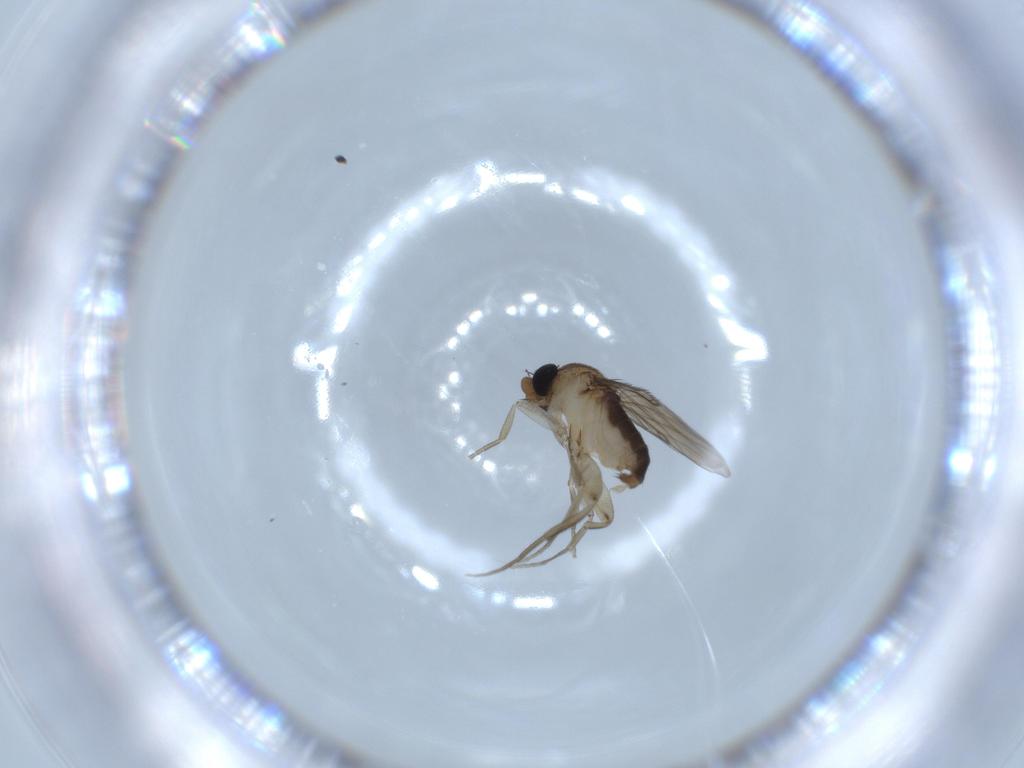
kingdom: Animalia
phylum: Arthropoda
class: Insecta
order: Diptera
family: Phoridae
